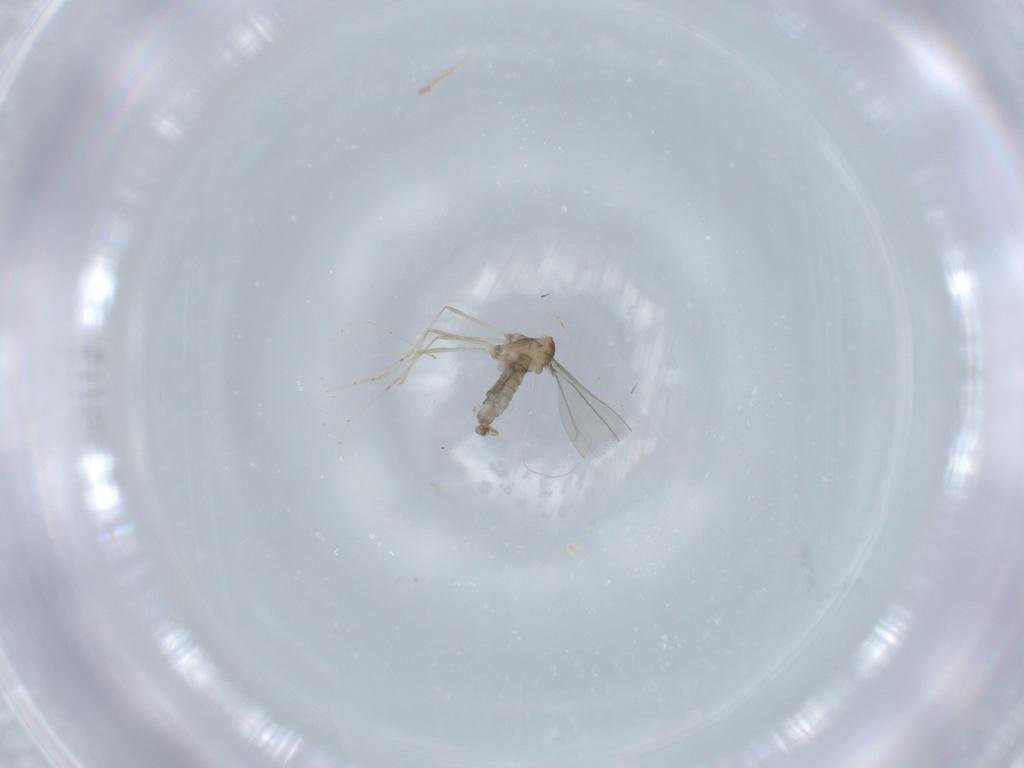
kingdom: Animalia
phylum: Arthropoda
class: Insecta
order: Diptera
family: Cecidomyiidae
